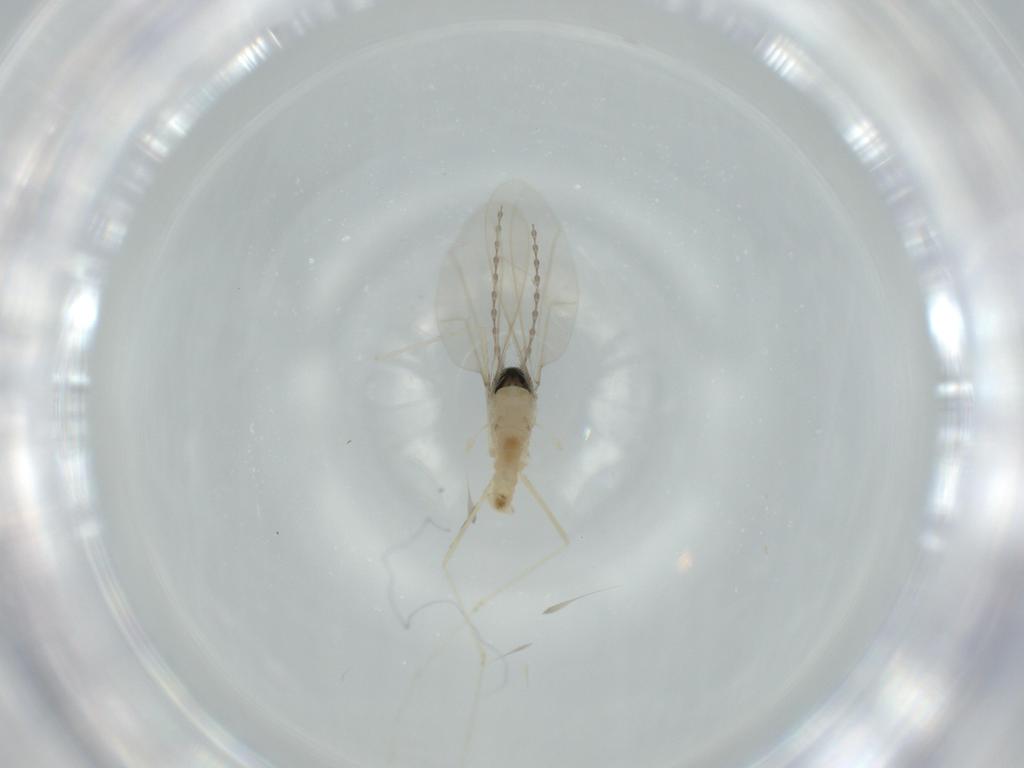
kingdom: Animalia
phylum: Arthropoda
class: Insecta
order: Diptera
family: Cecidomyiidae
